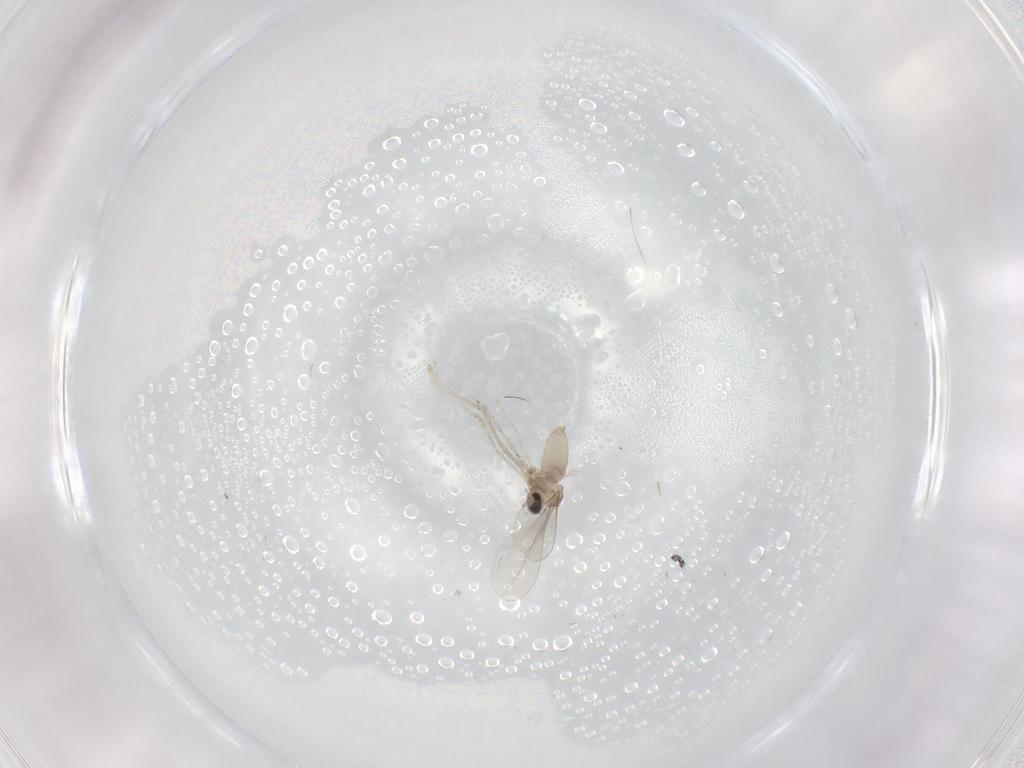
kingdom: Animalia
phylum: Arthropoda
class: Insecta
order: Diptera
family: Cecidomyiidae
